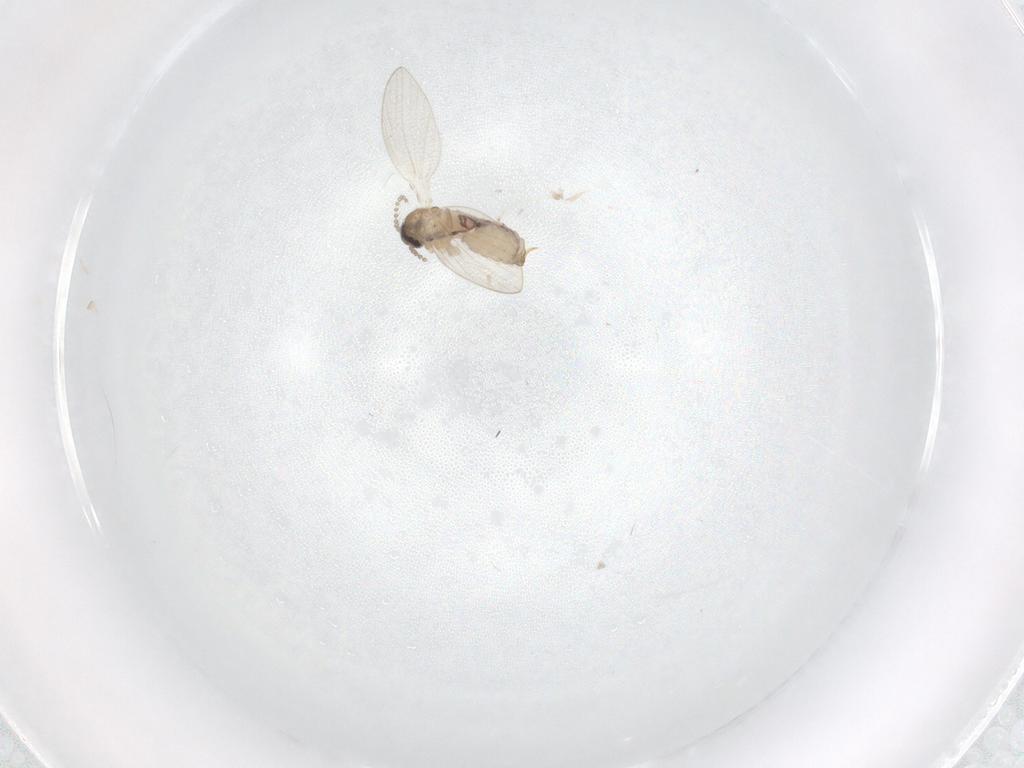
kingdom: Animalia
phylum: Arthropoda
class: Insecta
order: Diptera
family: Psychodidae
